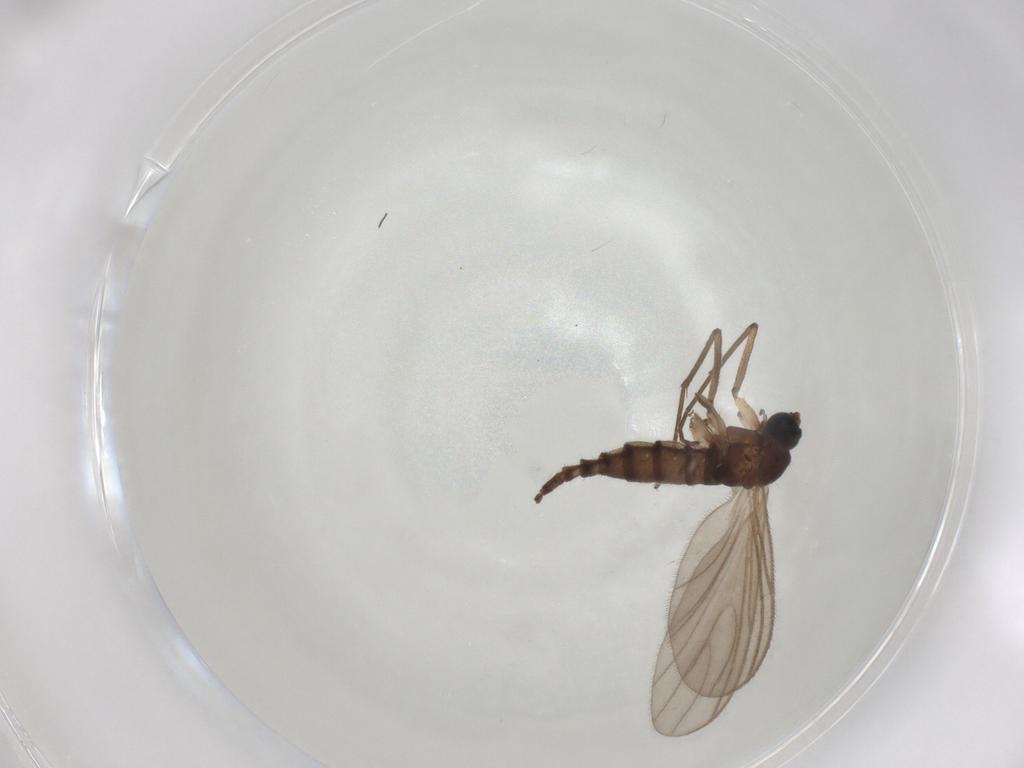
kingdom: Animalia
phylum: Arthropoda
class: Insecta
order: Diptera
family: Sciaridae
